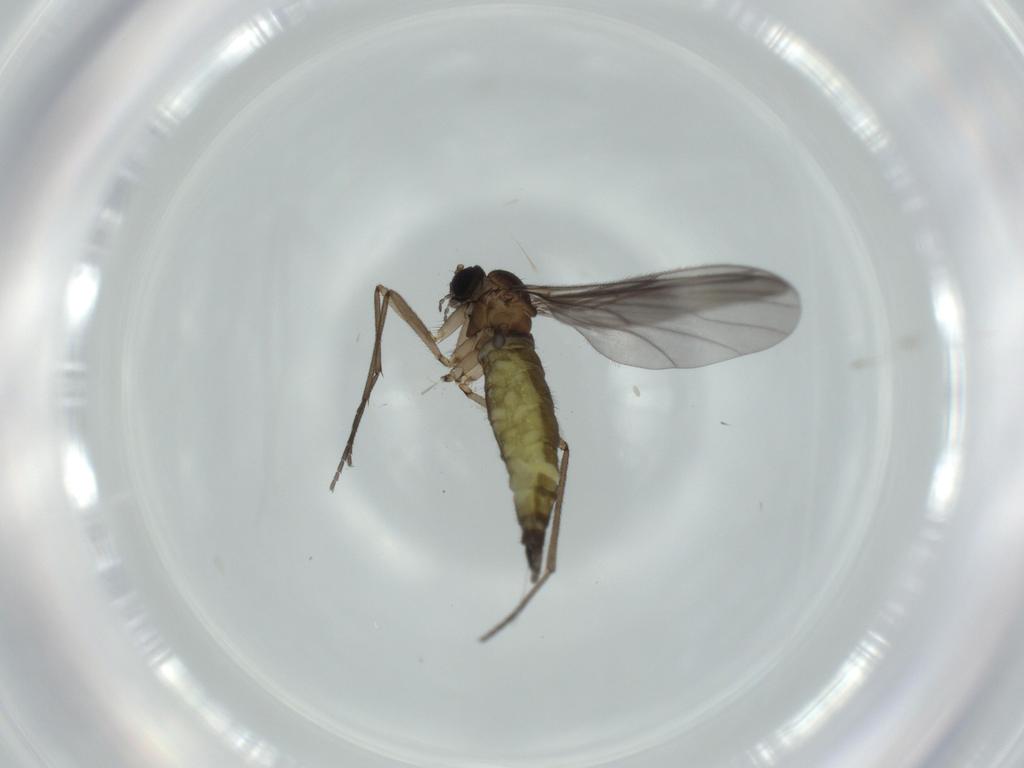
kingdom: Animalia
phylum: Arthropoda
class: Insecta
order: Diptera
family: Sciaridae
